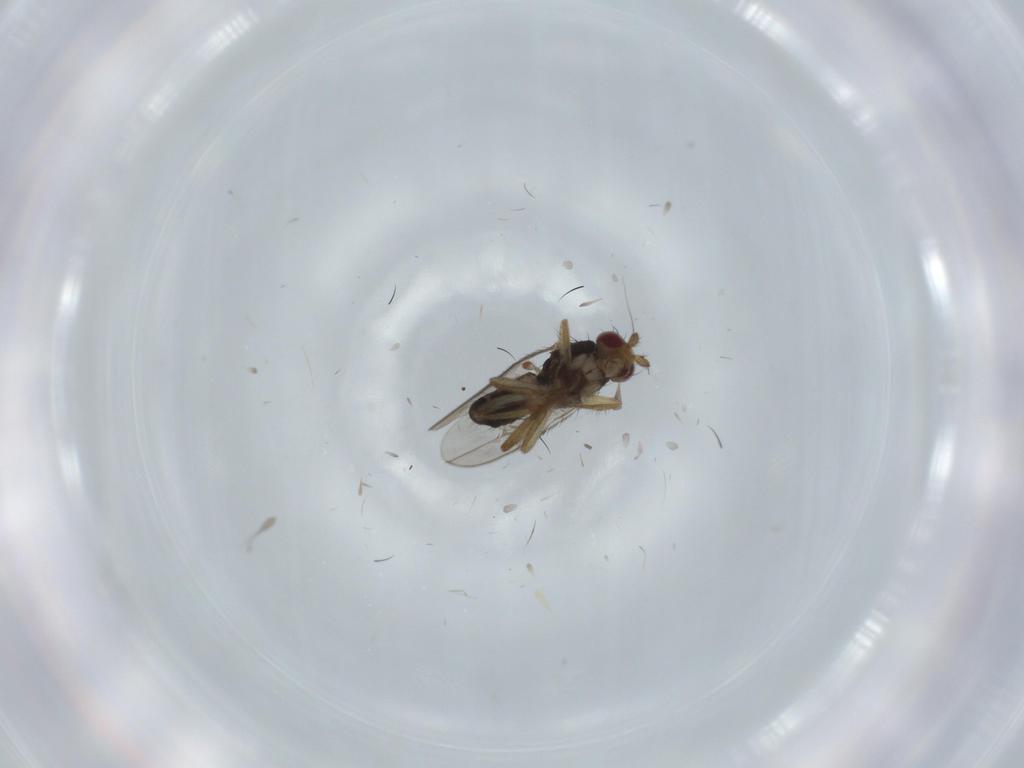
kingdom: Animalia
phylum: Arthropoda
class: Insecta
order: Diptera
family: Sphaeroceridae
